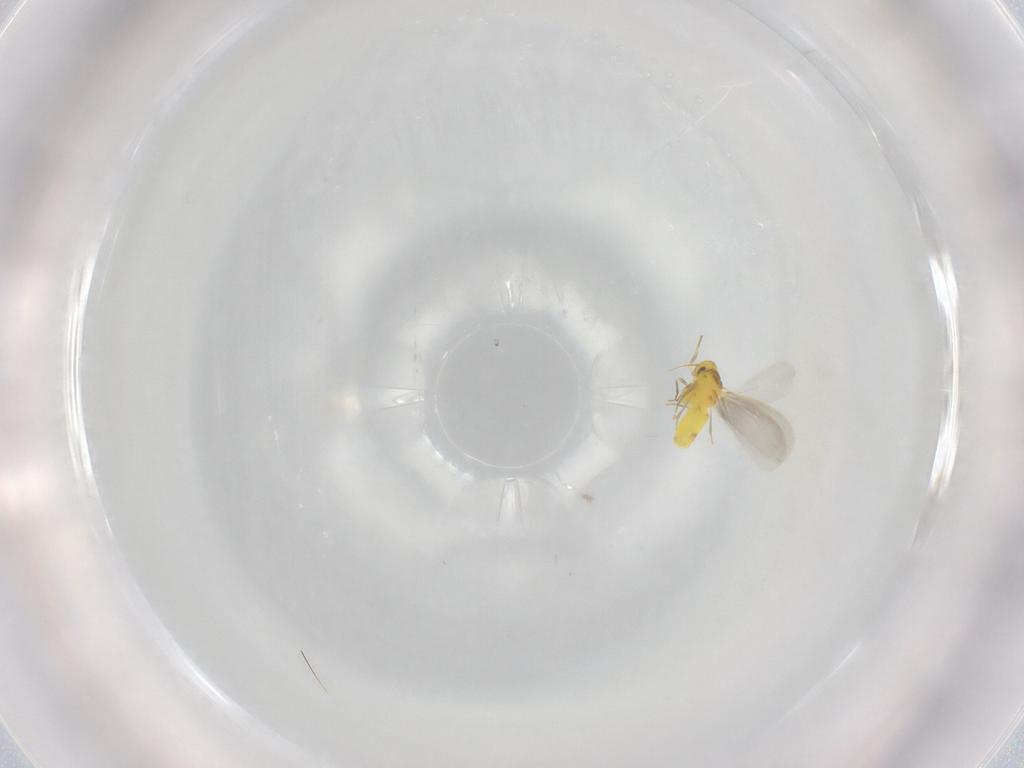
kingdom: Animalia
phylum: Arthropoda
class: Insecta
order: Hemiptera
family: Aleyrodidae
